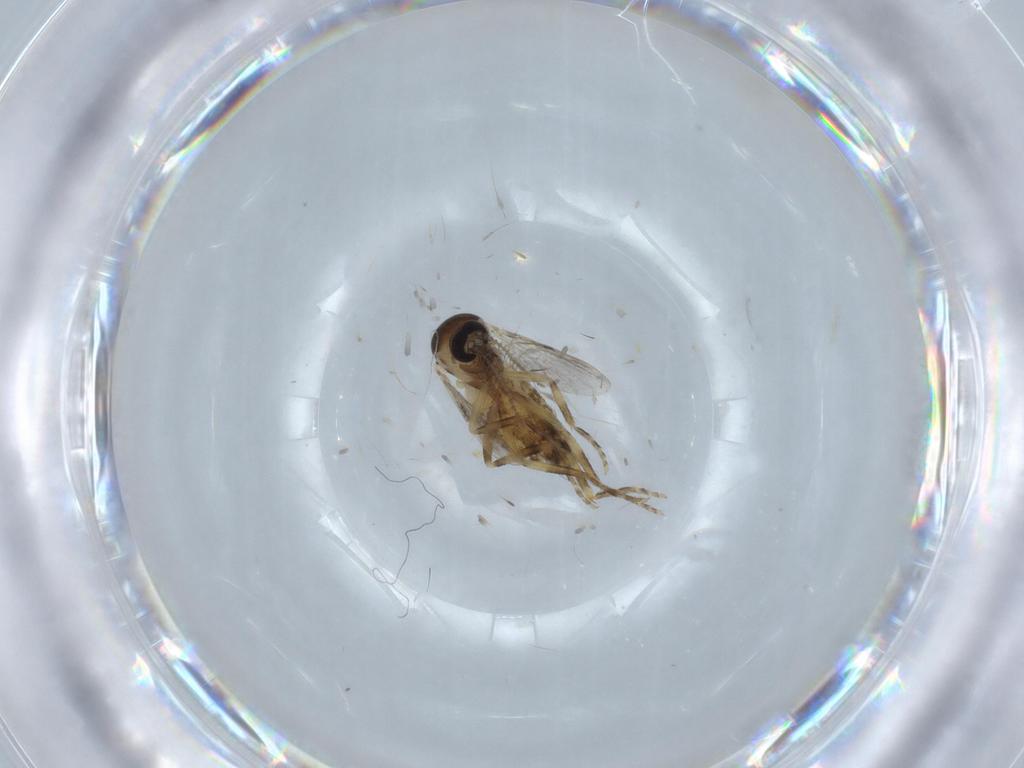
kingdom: Animalia
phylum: Arthropoda
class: Insecta
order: Diptera
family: Ceratopogonidae
